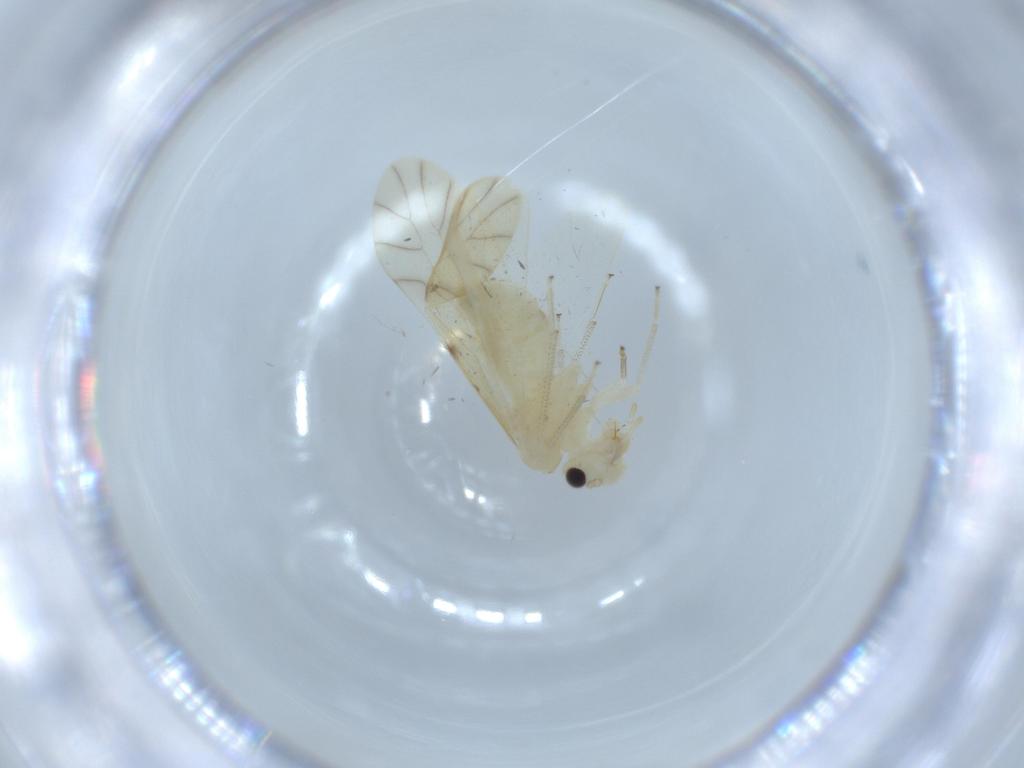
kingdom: Animalia
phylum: Arthropoda
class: Insecta
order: Psocodea
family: Caeciliusidae
